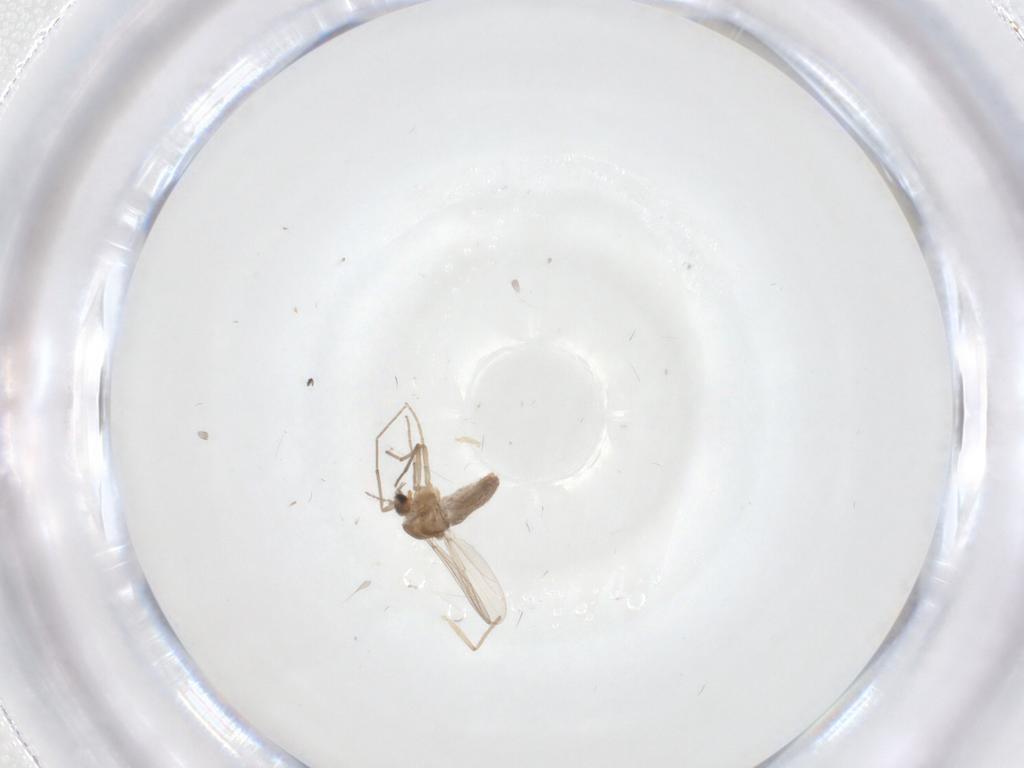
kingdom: Animalia
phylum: Arthropoda
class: Insecta
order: Diptera
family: Chironomidae
